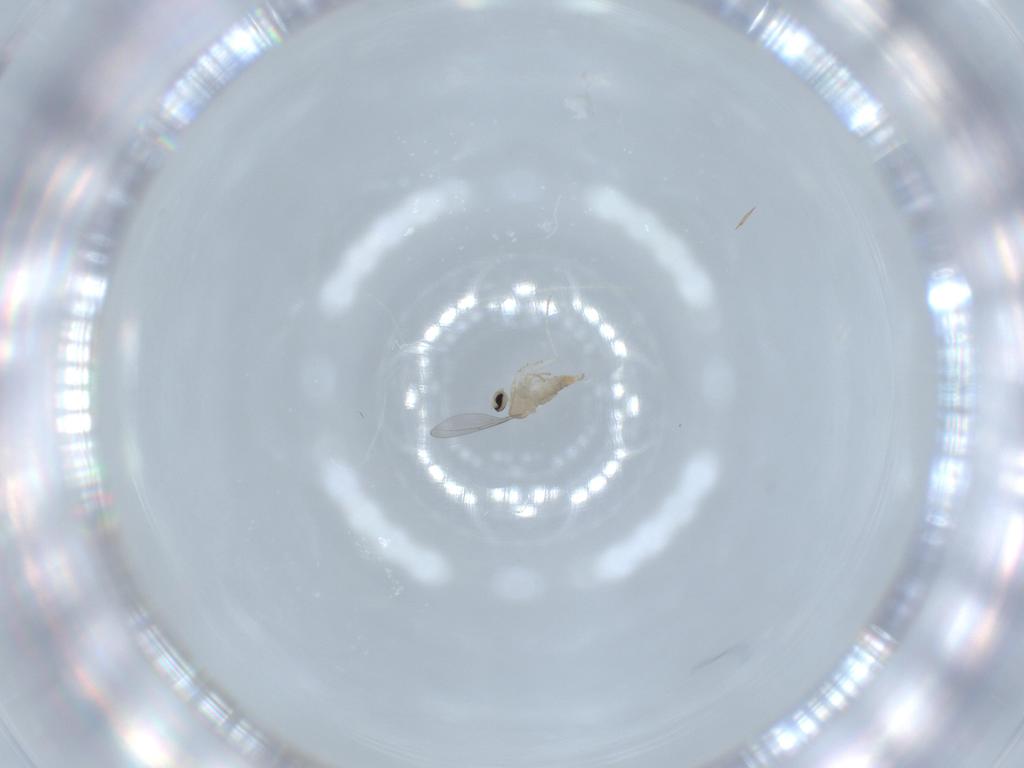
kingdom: Animalia
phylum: Arthropoda
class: Insecta
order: Diptera
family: Cecidomyiidae
